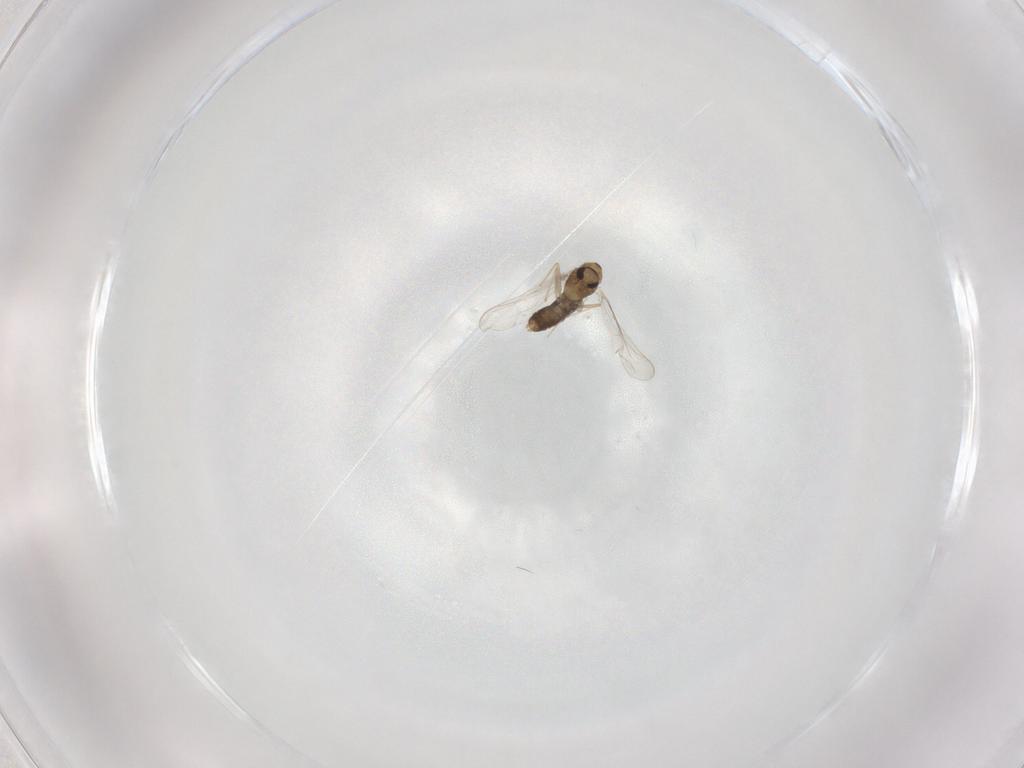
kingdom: Animalia
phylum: Arthropoda
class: Insecta
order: Diptera
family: Chironomidae
